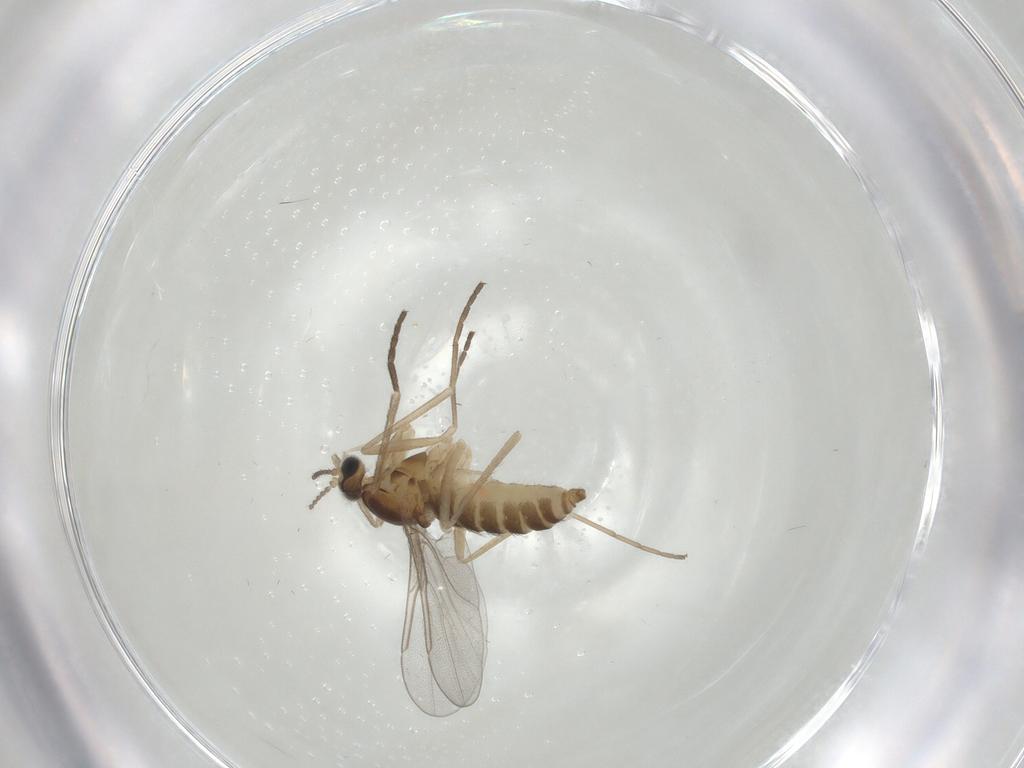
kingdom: Animalia
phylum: Arthropoda
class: Insecta
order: Diptera
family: Cecidomyiidae
